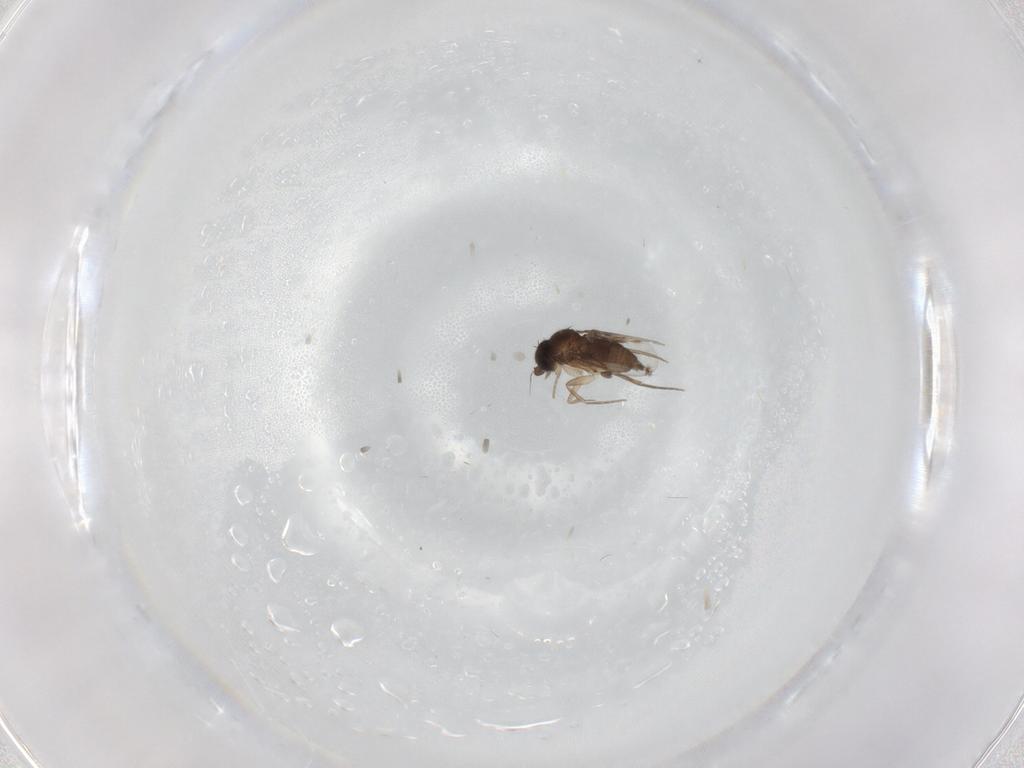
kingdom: Animalia
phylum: Arthropoda
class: Insecta
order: Diptera
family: Phoridae
